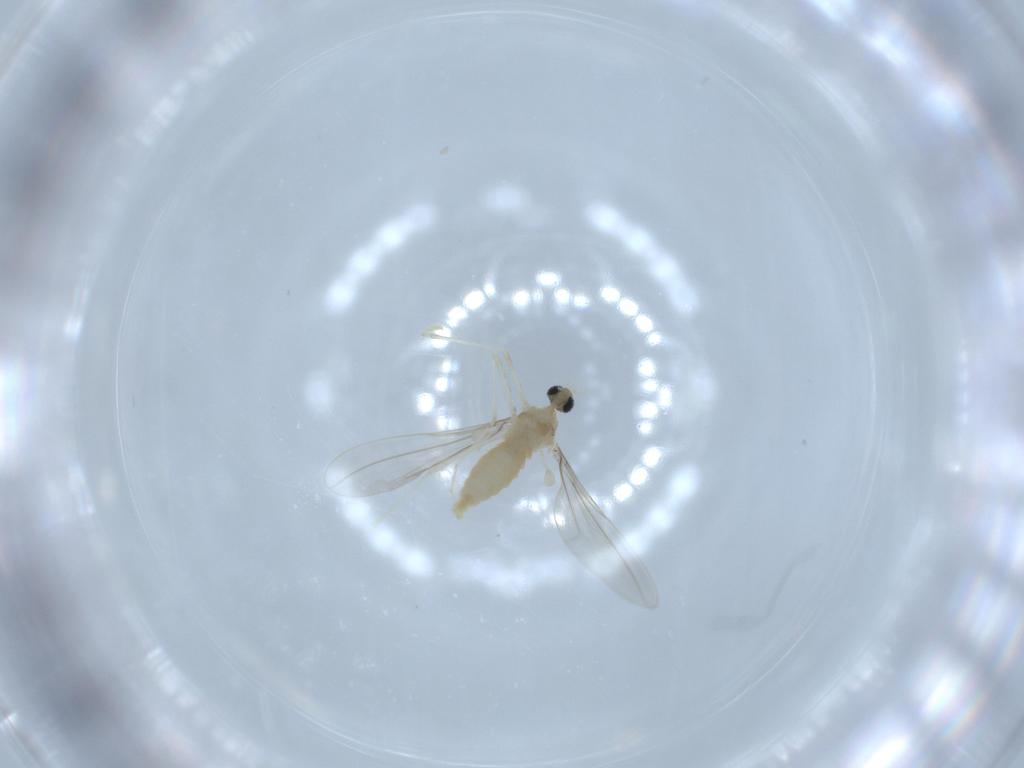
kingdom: Animalia
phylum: Arthropoda
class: Insecta
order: Diptera
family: Cecidomyiidae
